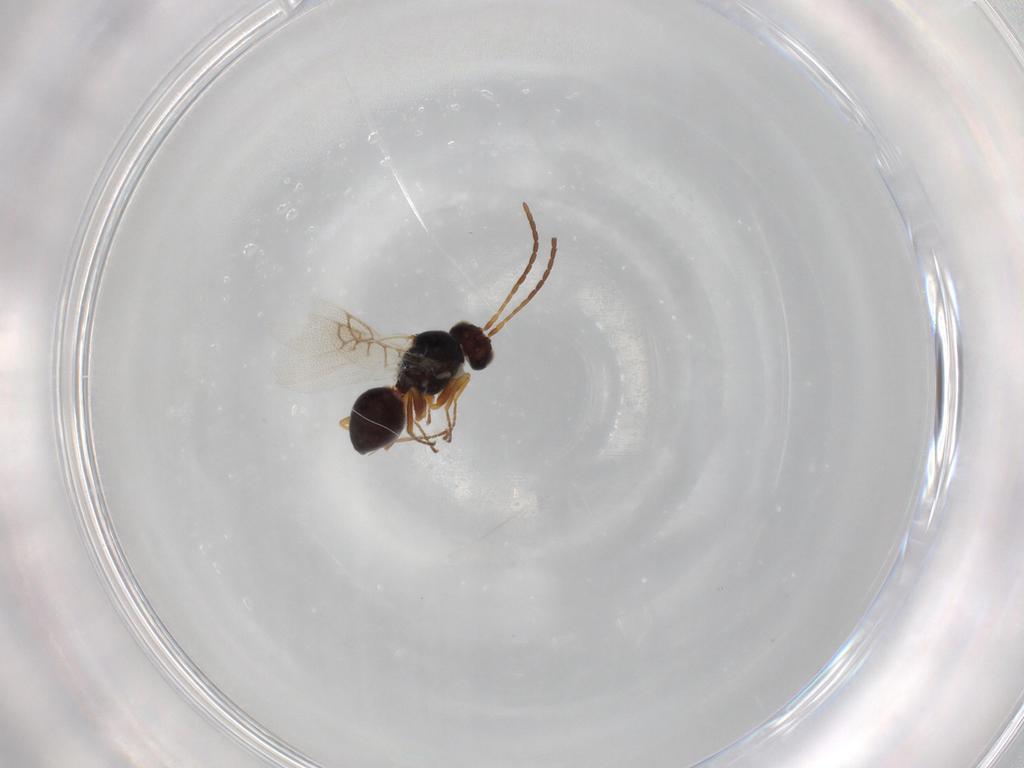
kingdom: Animalia
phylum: Arthropoda
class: Insecta
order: Hymenoptera
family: Figitidae
